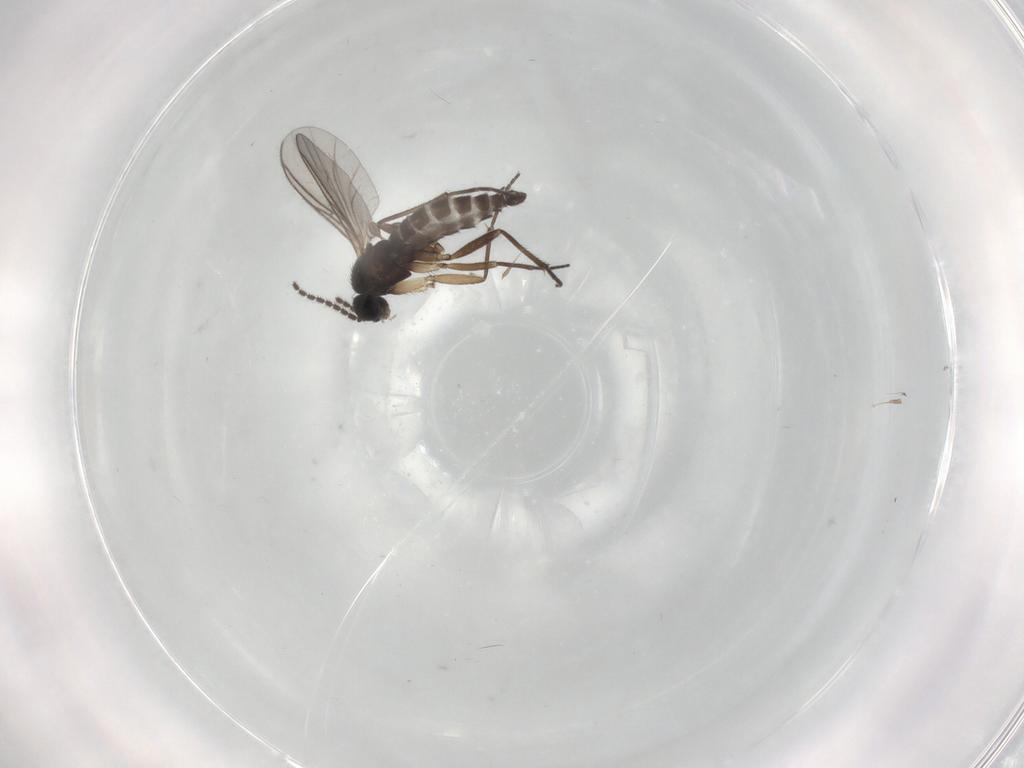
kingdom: Animalia
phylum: Arthropoda
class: Insecta
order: Diptera
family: Sciaridae
